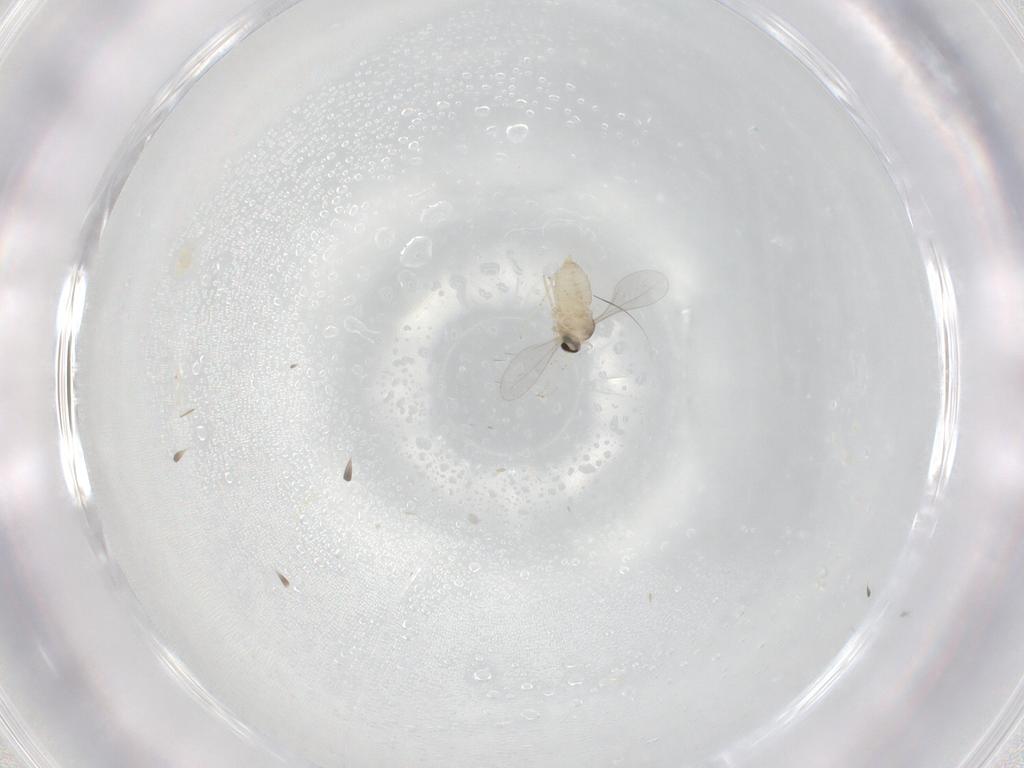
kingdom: Animalia
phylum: Arthropoda
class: Insecta
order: Diptera
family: Cecidomyiidae
